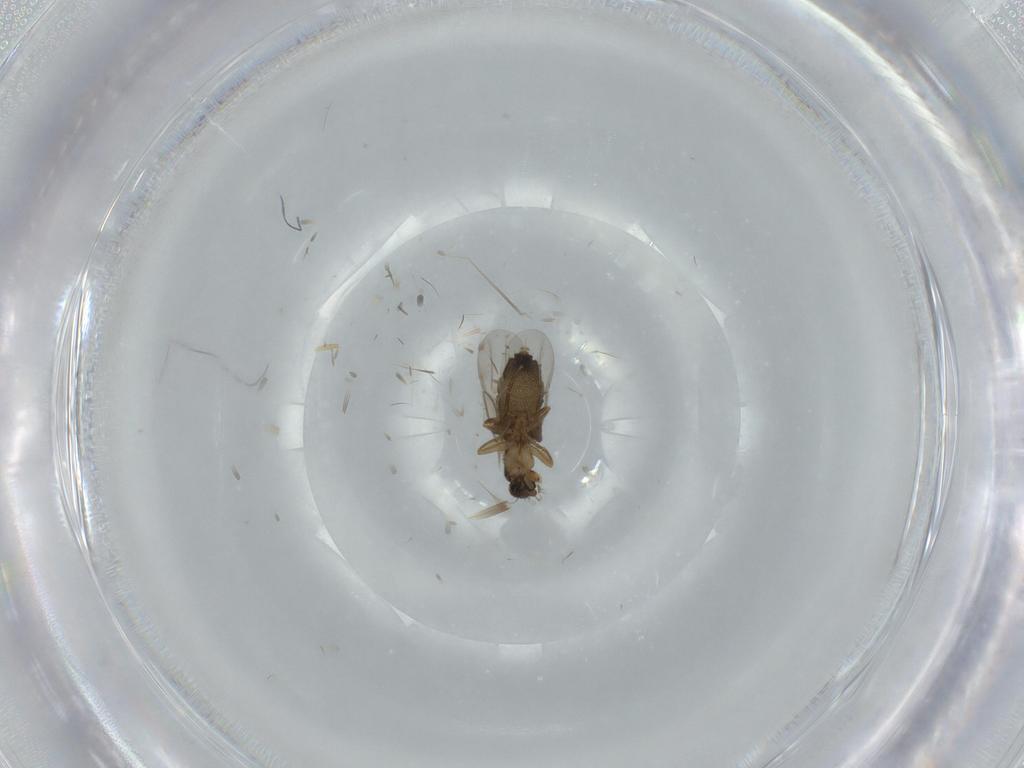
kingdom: Animalia
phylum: Arthropoda
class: Insecta
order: Diptera
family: Phoridae
